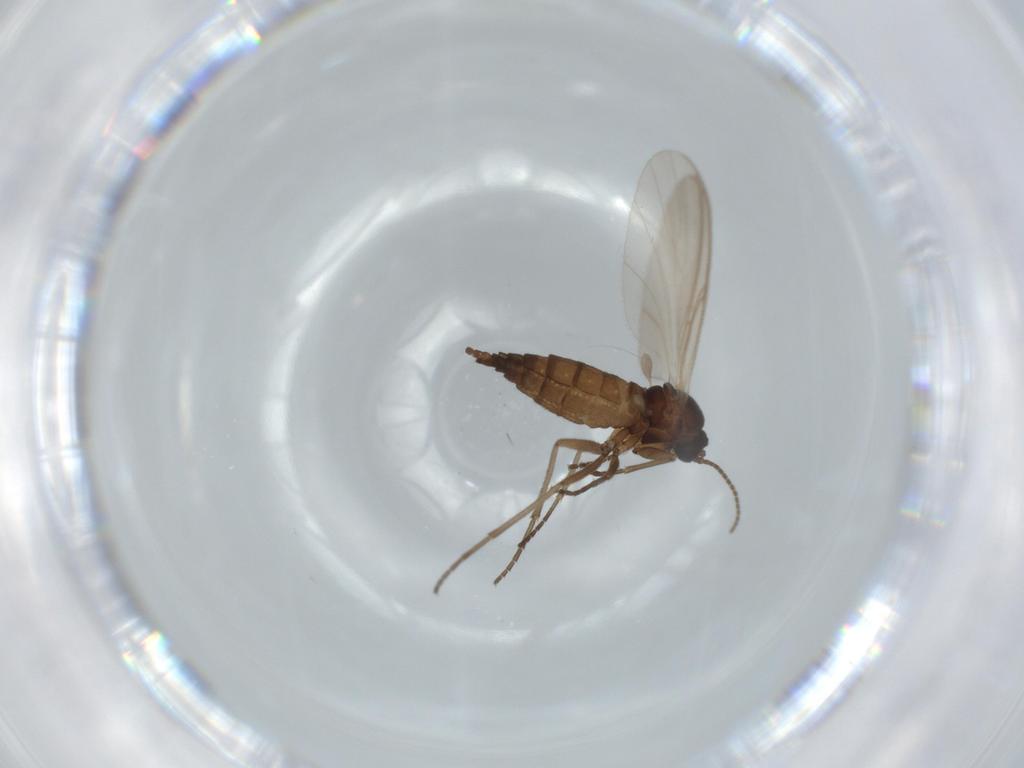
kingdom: Animalia
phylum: Arthropoda
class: Insecta
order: Diptera
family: Sciaridae
